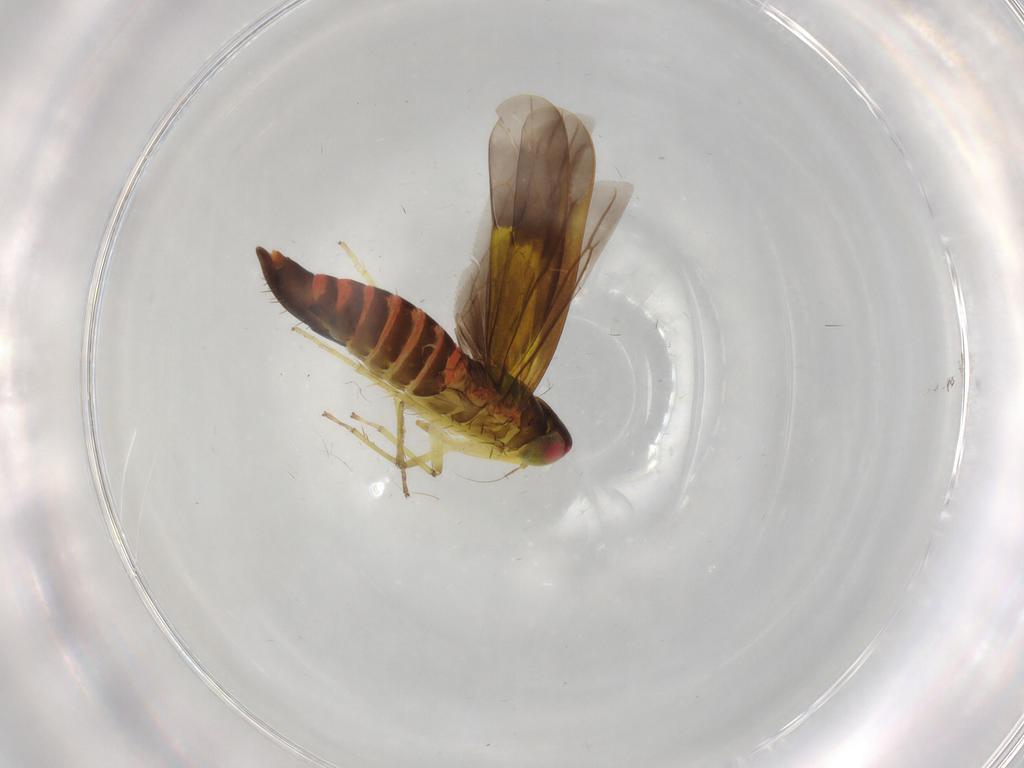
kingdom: Animalia
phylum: Arthropoda
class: Insecta
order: Hemiptera
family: Cicadellidae
